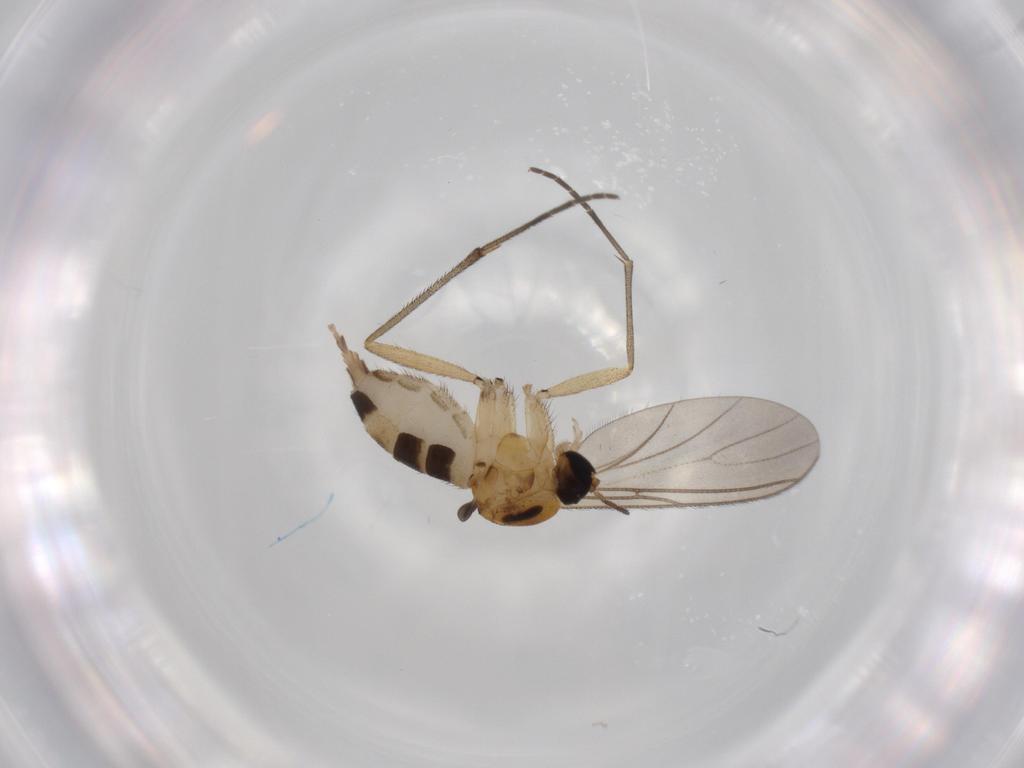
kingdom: Animalia
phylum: Arthropoda
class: Insecta
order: Diptera
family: Sciaridae
